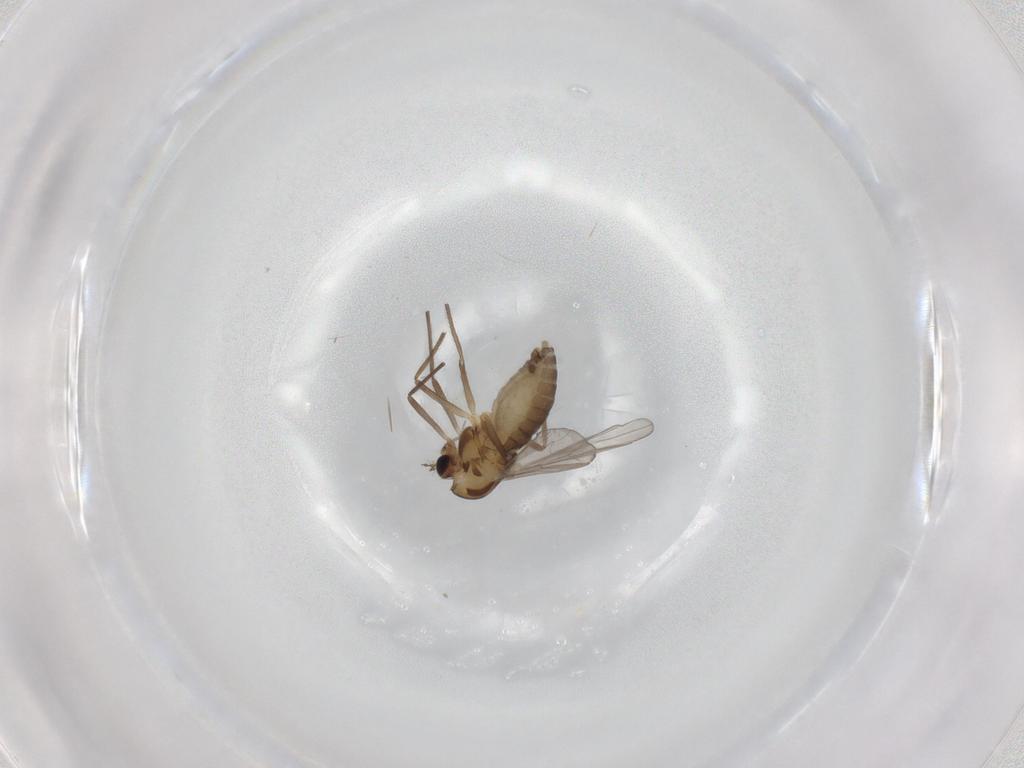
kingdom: Animalia
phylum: Arthropoda
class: Insecta
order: Diptera
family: Chironomidae
